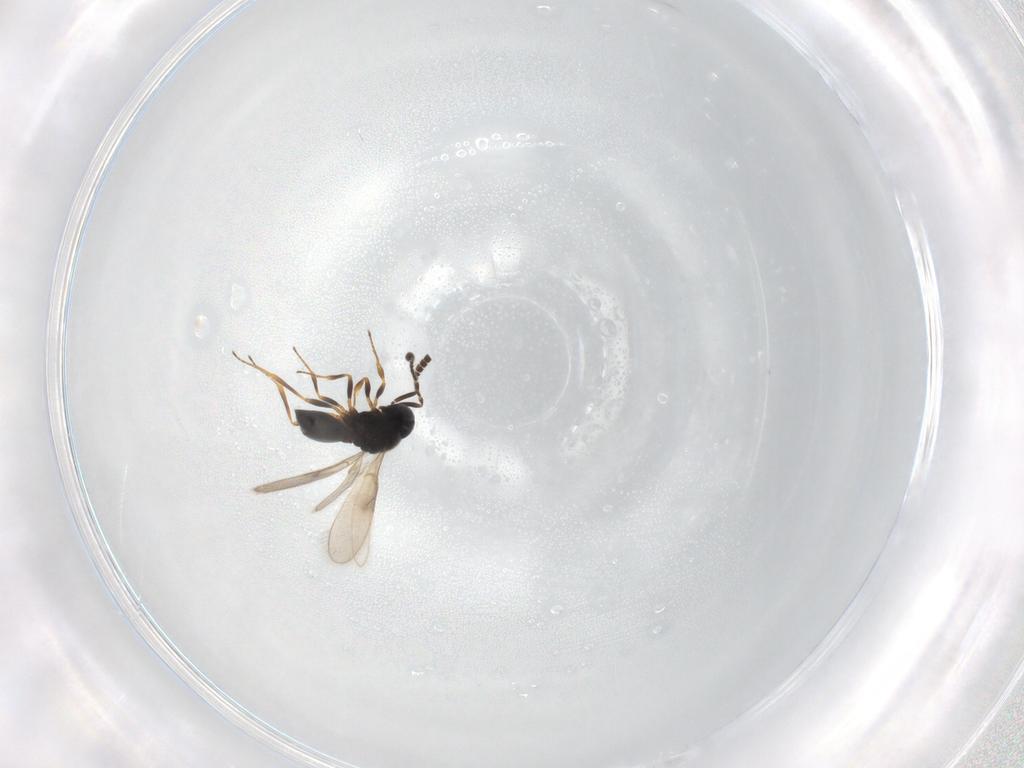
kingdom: Animalia
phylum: Arthropoda
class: Insecta
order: Hymenoptera
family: Scelionidae
